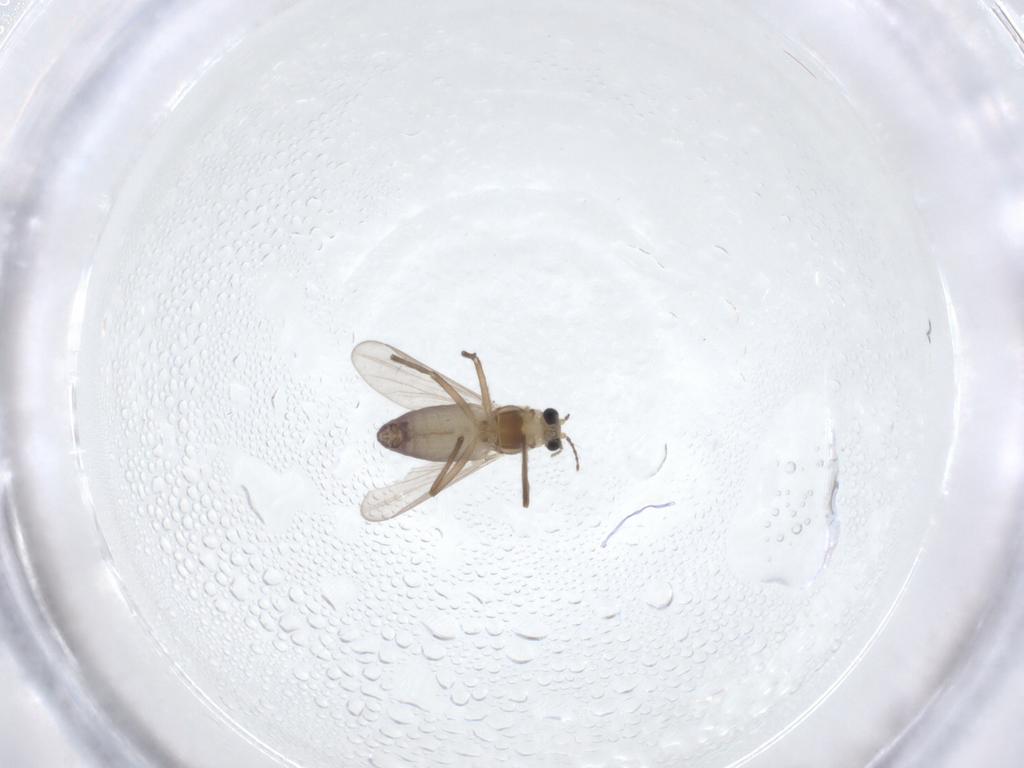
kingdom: Animalia
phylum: Arthropoda
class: Insecta
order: Diptera
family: Chironomidae
